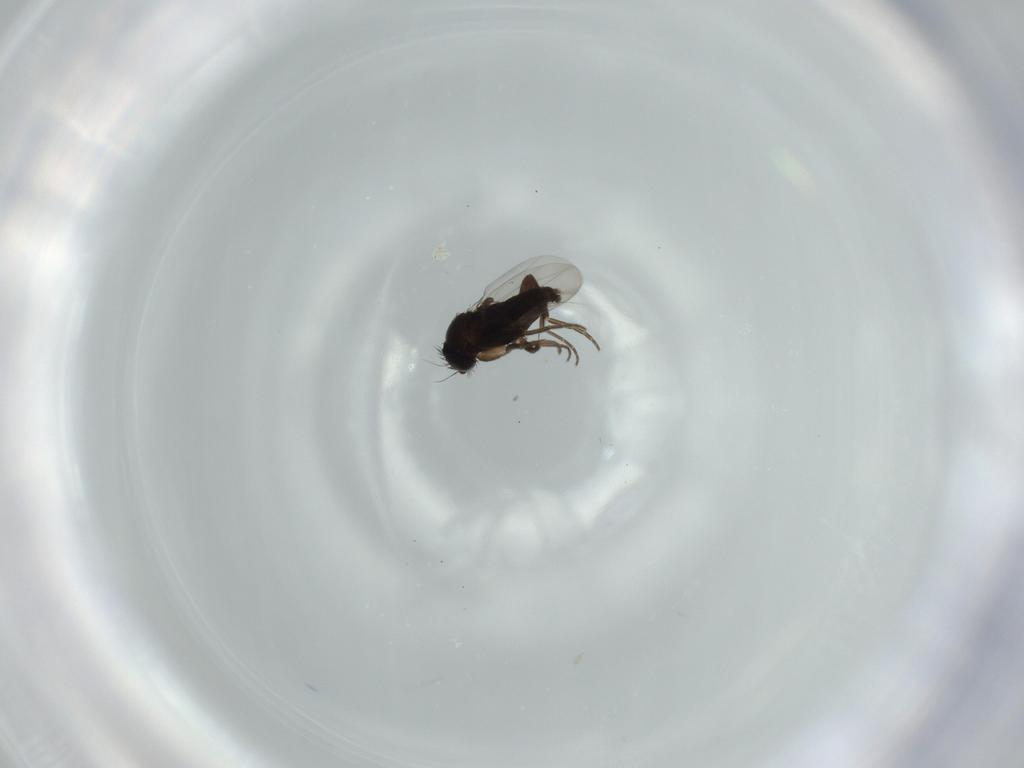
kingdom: Animalia
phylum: Arthropoda
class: Insecta
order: Diptera
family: Phoridae
